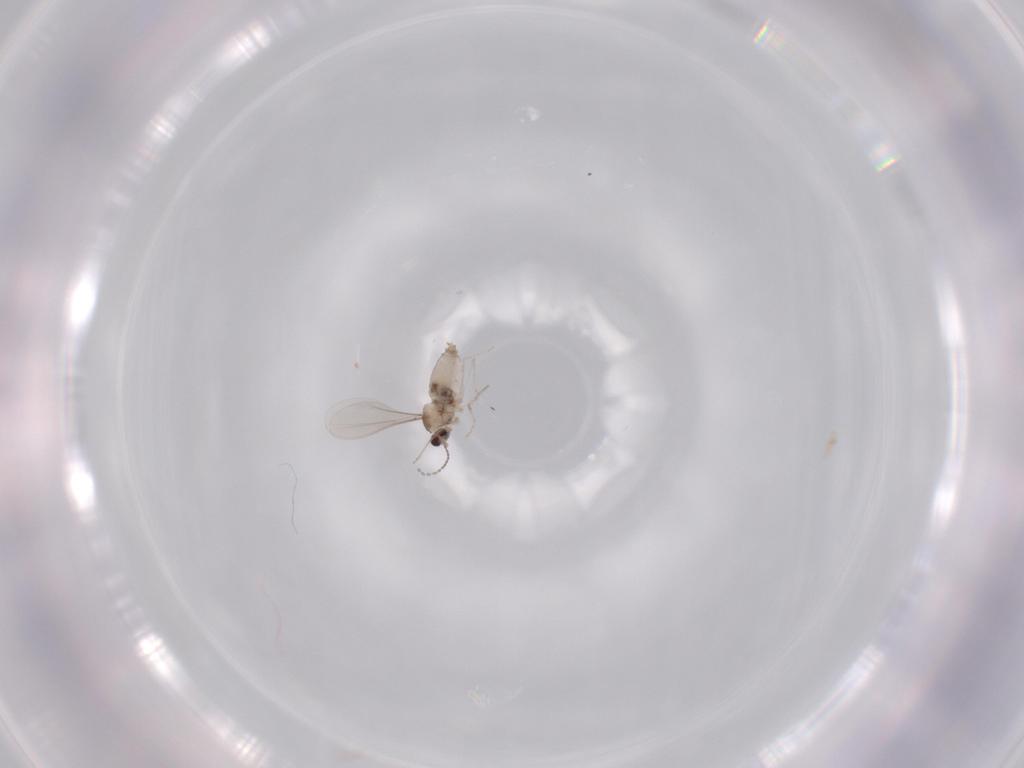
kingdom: Animalia
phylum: Arthropoda
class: Insecta
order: Diptera
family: Cecidomyiidae
